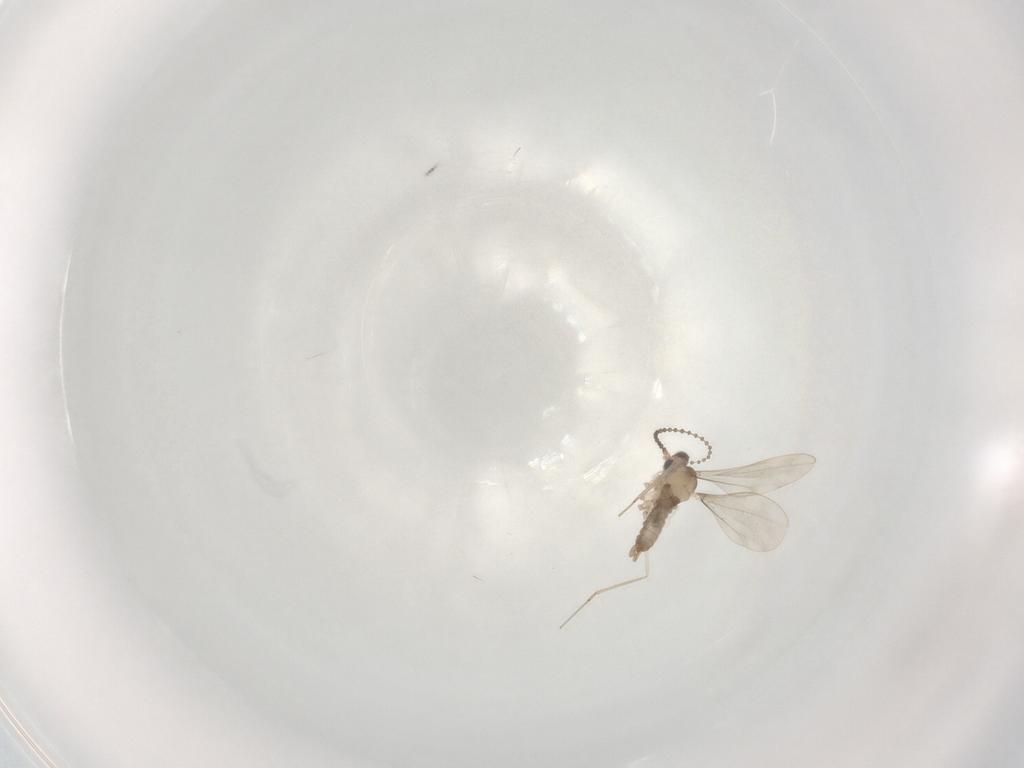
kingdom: Animalia
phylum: Arthropoda
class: Insecta
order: Diptera
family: Cecidomyiidae
